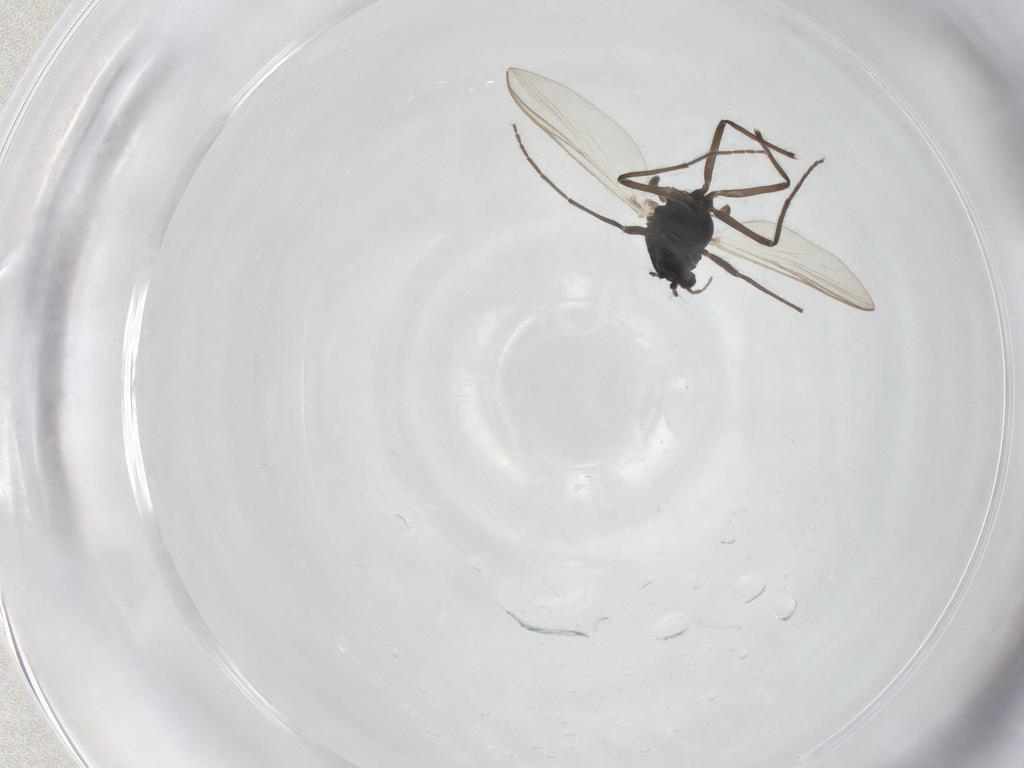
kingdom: Animalia
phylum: Arthropoda
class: Insecta
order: Diptera
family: Chironomidae
